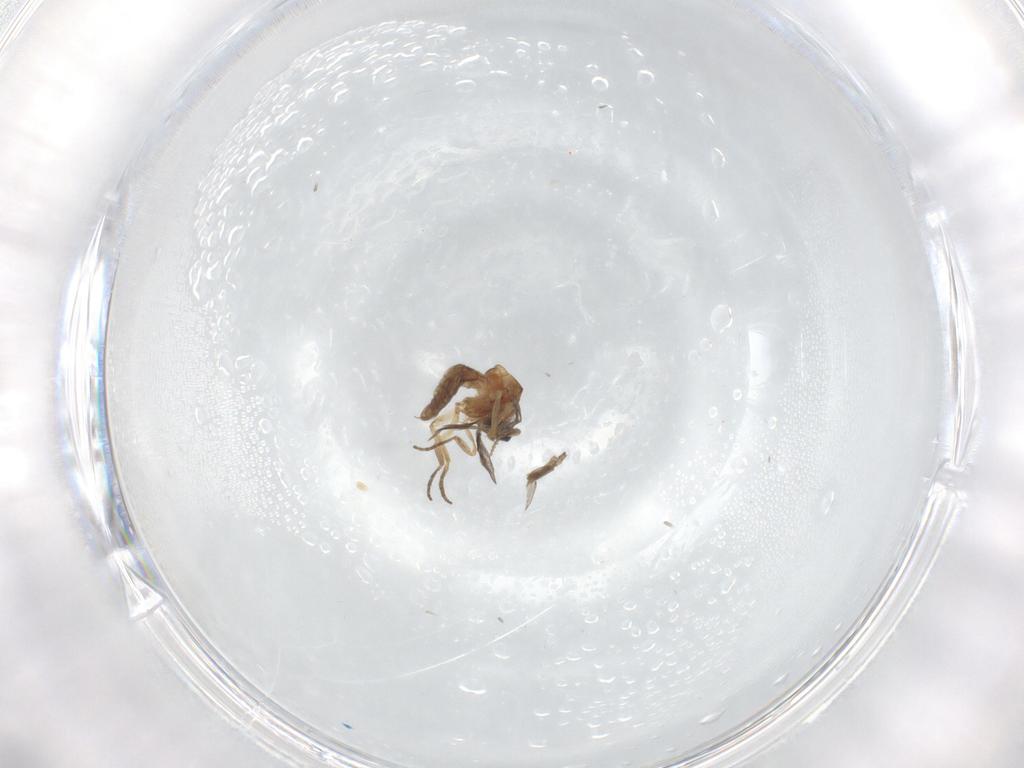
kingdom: Animalia
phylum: Arthropoda
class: Insecta
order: Diptera
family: Ceratopogonidae
